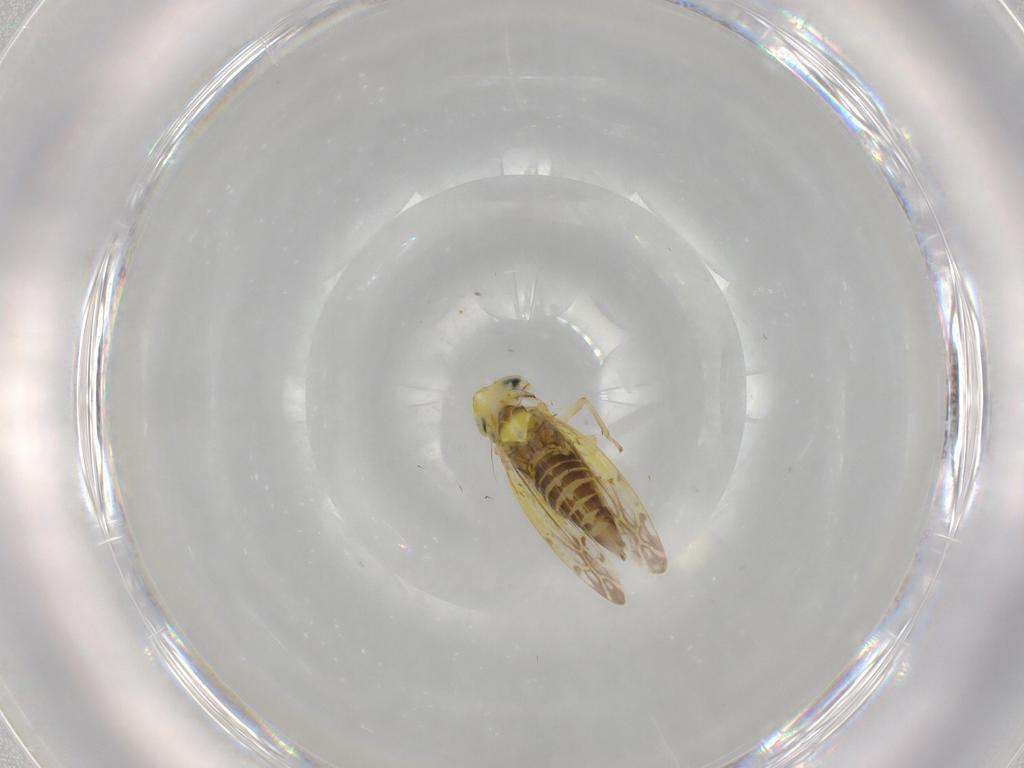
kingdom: Animalia
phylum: Arthropoda
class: Insecta
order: Hemiptera
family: Cicadellidae
